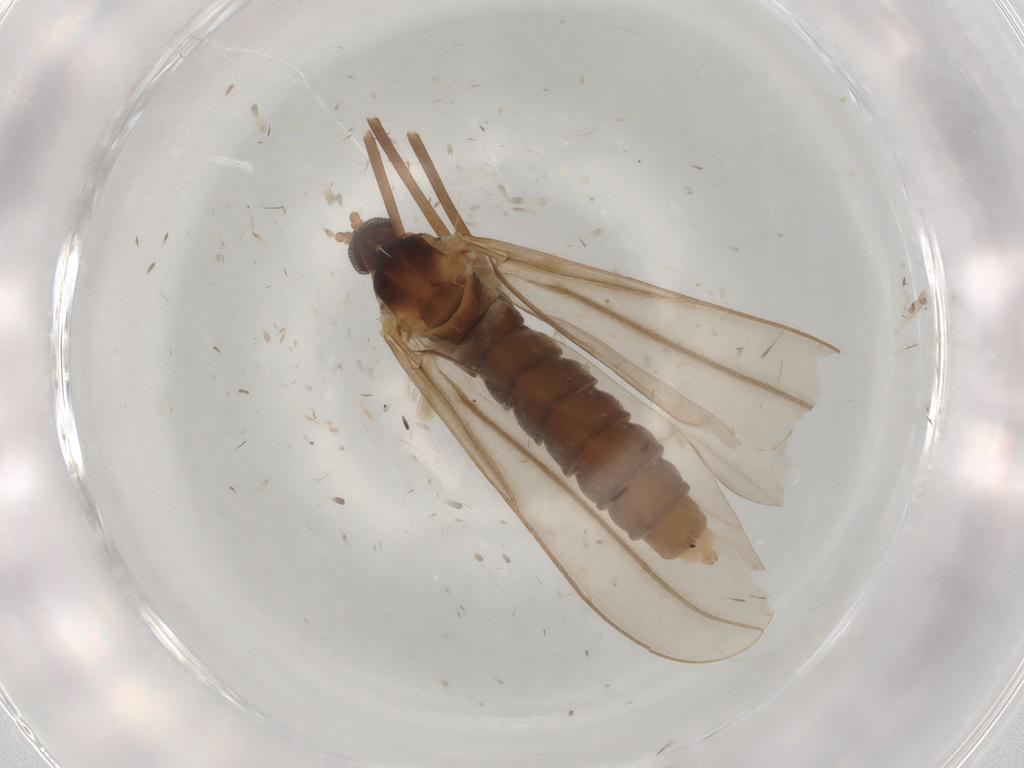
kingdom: Animalia
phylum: Arthropoda
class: Insecta
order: Diptera
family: Cecidomyiidae
